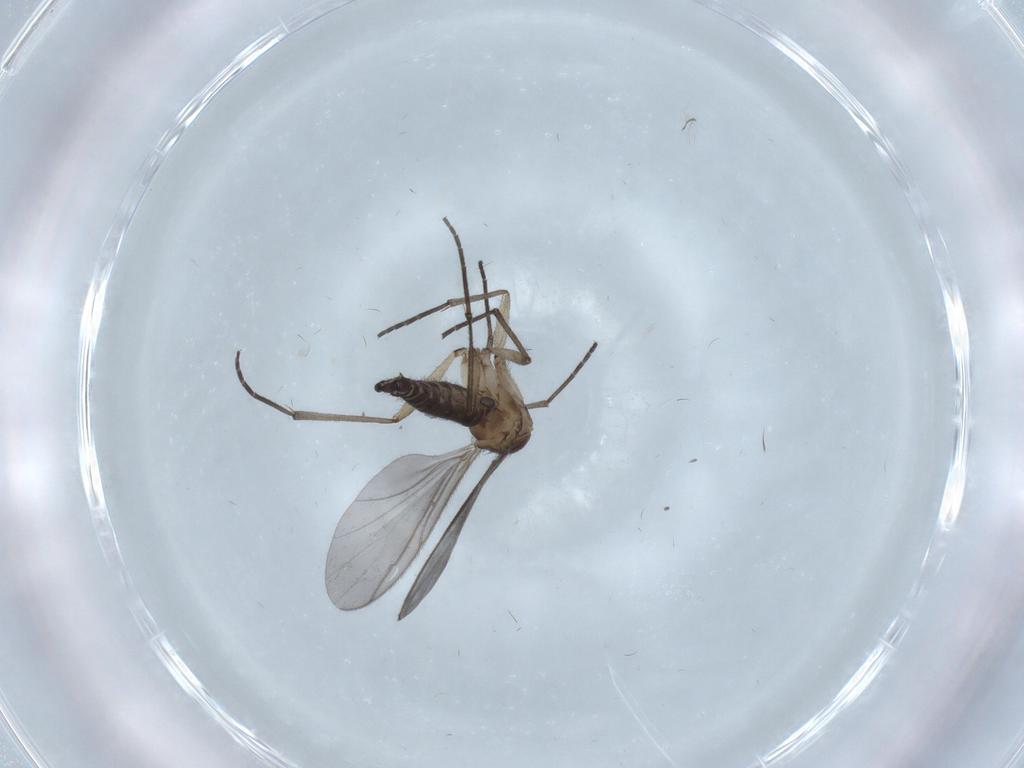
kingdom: Animalia
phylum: Arthropoda
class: Insecta
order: Diptera
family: Sciaridae
